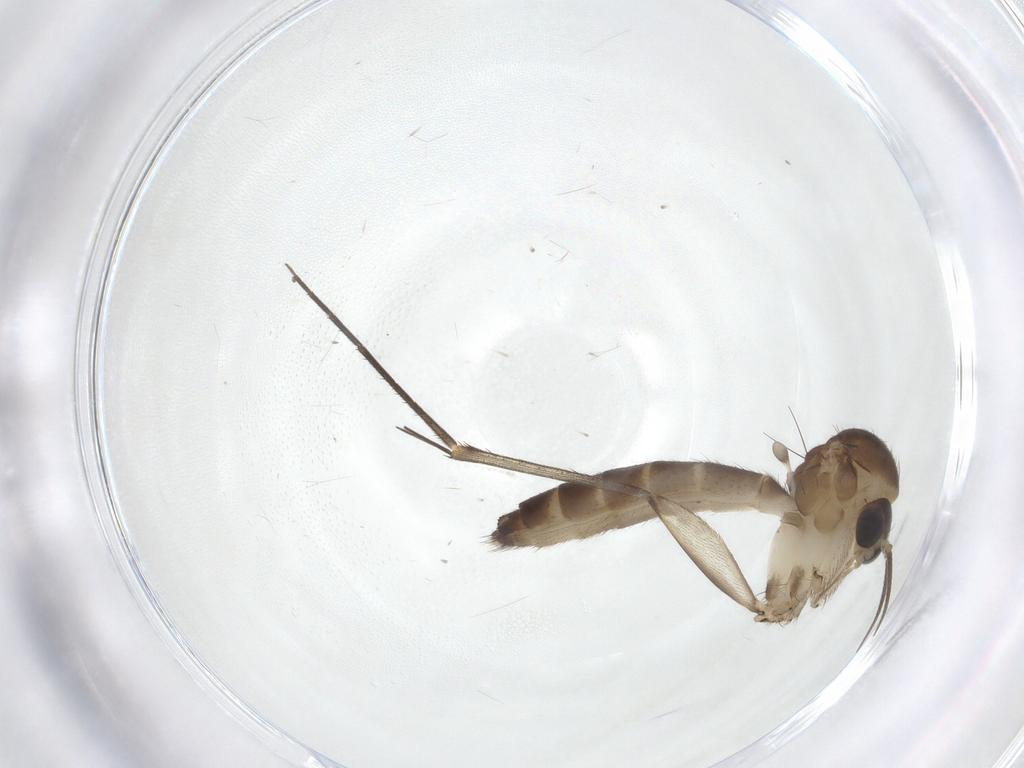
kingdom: Animalia
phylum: Arthropoda
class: Insecta
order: Diptera
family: Mycetophilidae
